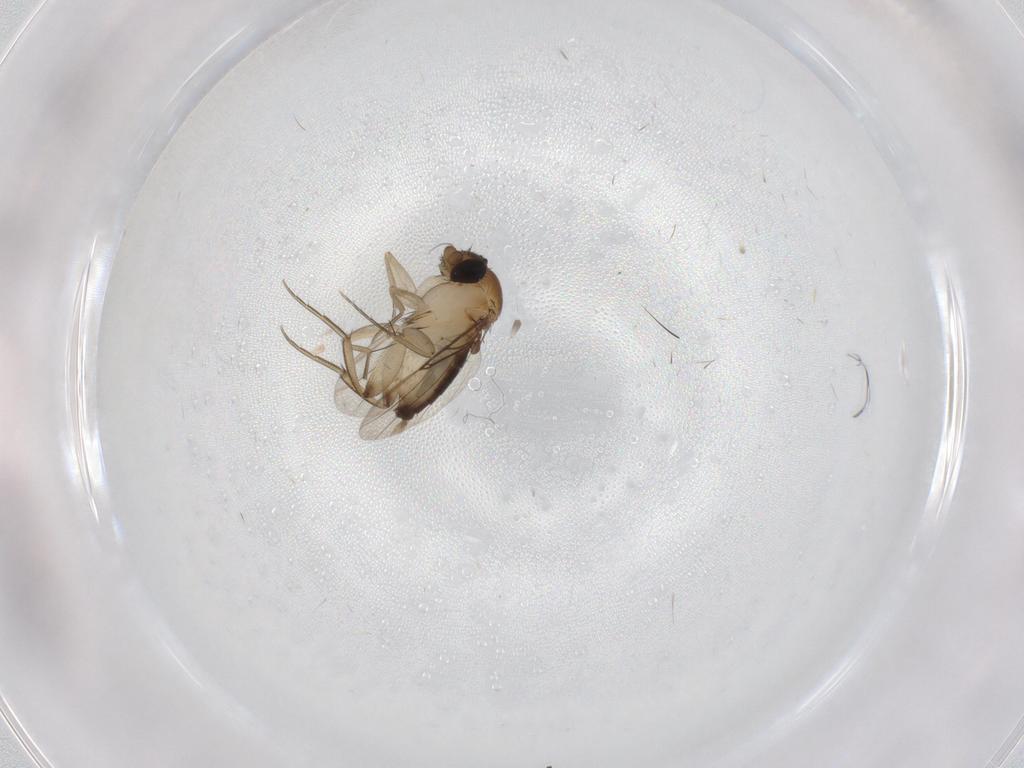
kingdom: Animalia
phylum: Arthropoda
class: Insecta
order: Diptera
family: Phoridae
